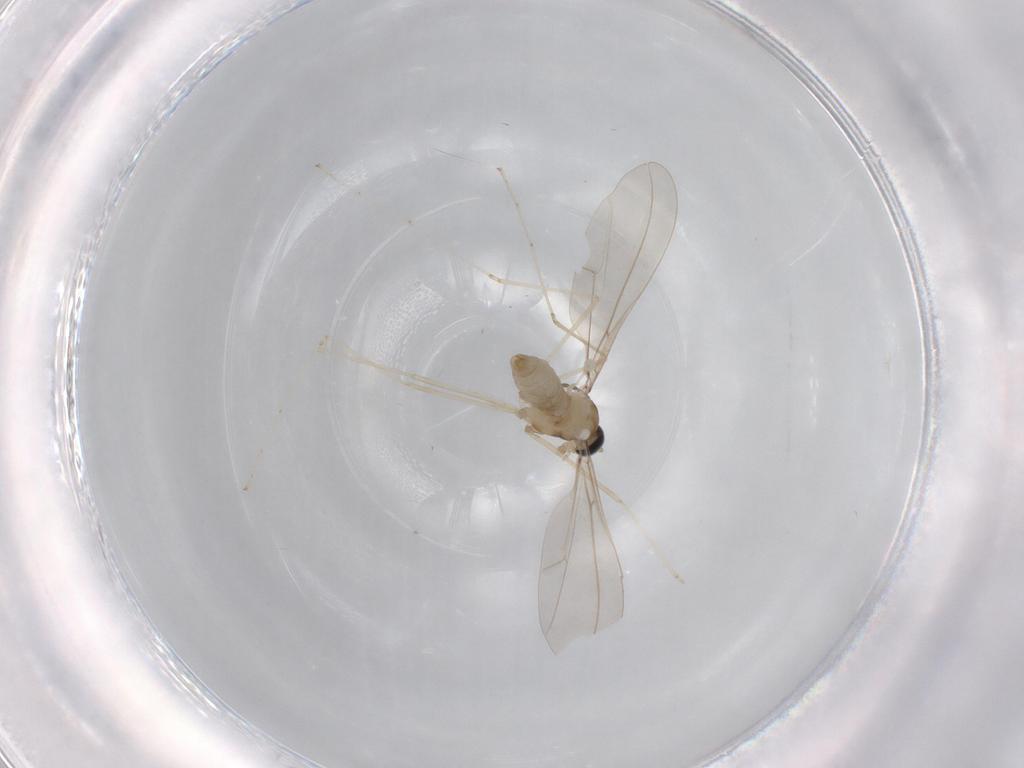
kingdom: Animalia
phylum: Arthropoda
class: Insecta
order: Diptera
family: Cecidomyiidae
